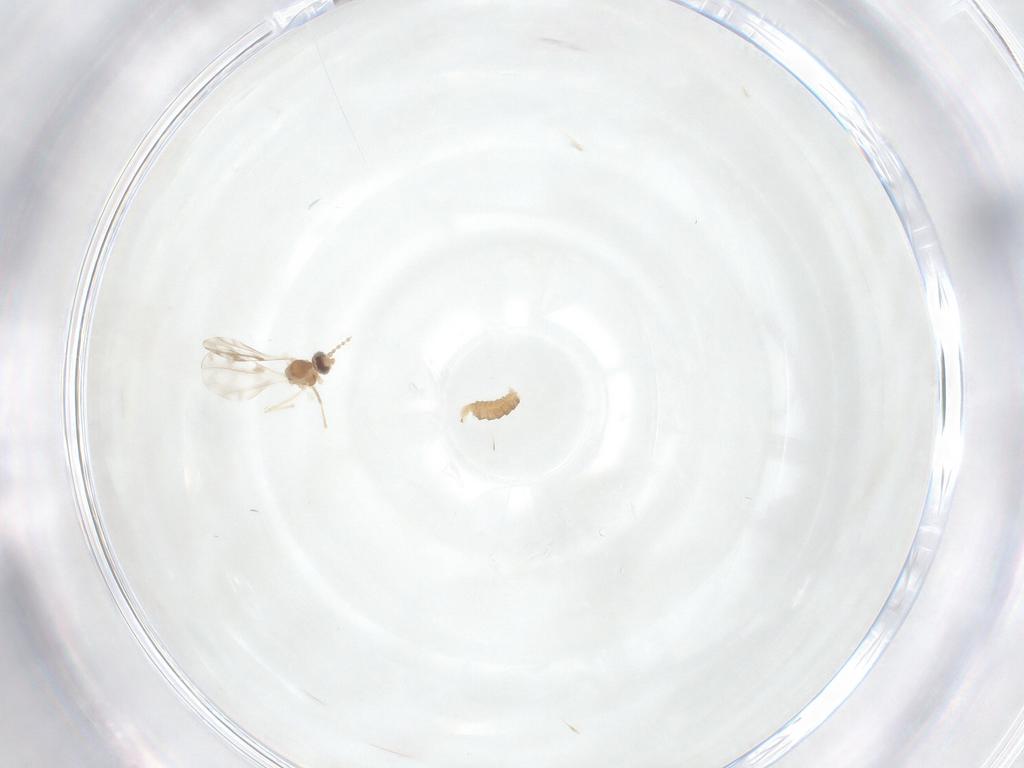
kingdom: Animalia
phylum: Arthropoda
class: Insecta
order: Diptera
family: Cecidomyiidae
